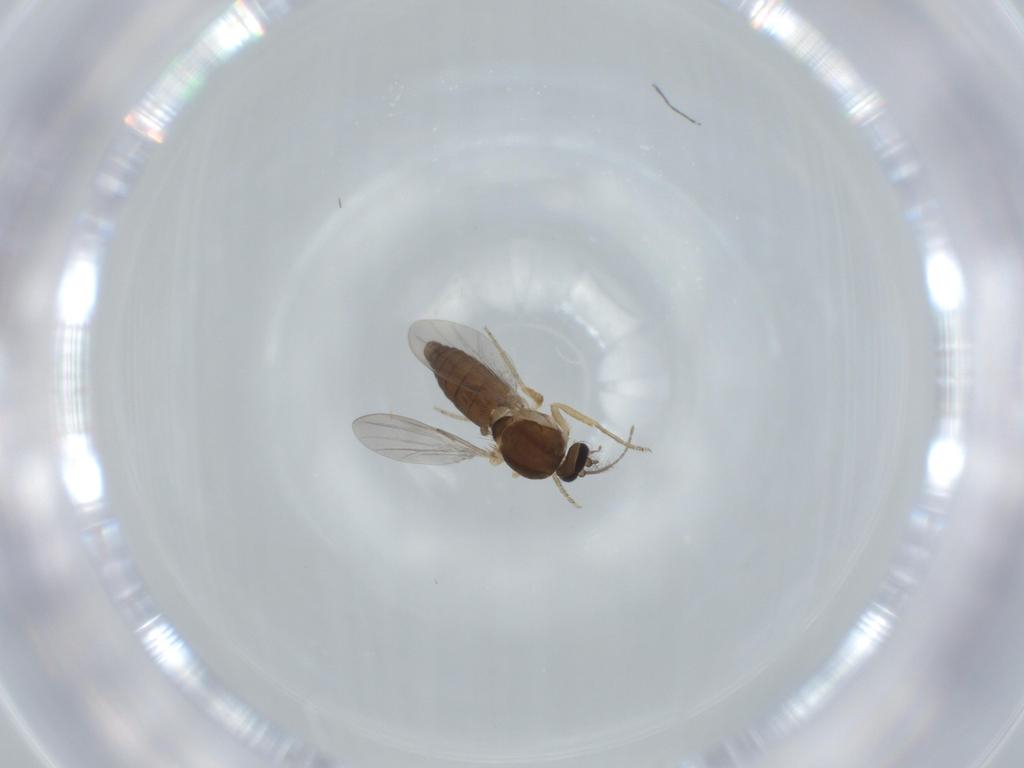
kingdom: Animalia
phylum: Arthropoda
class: Insecta
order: Diptera
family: Ceratopogonidae
